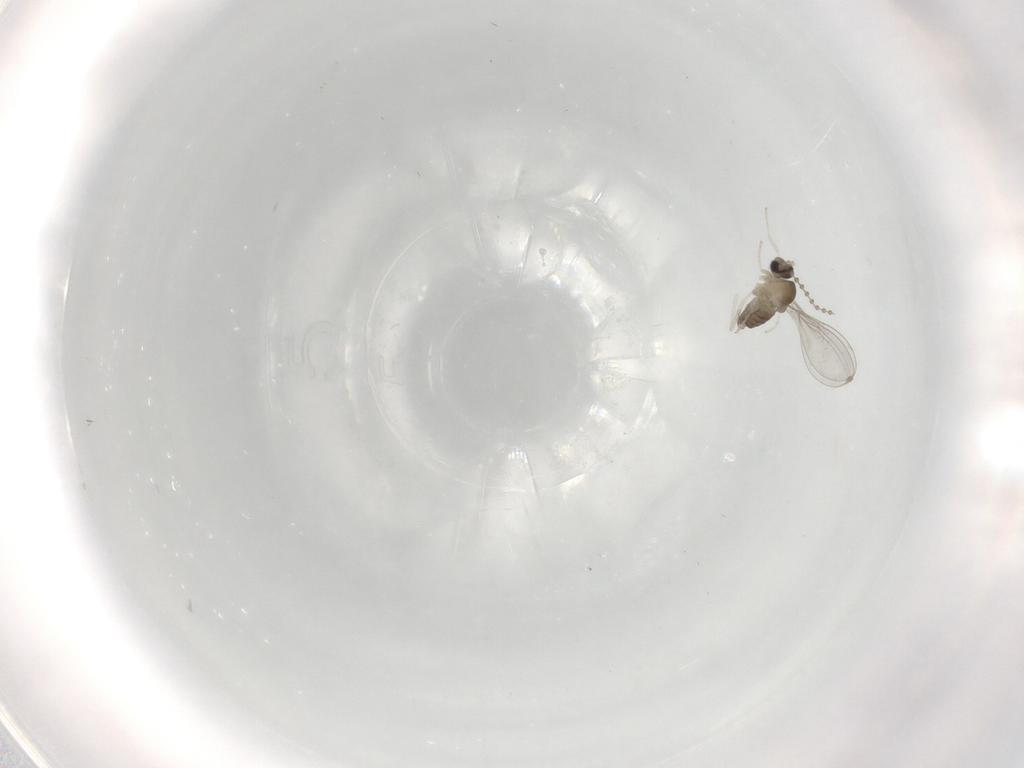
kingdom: Animalia
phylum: Arthropoda
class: Insecta
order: Diptera
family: Cecidomyiidae
